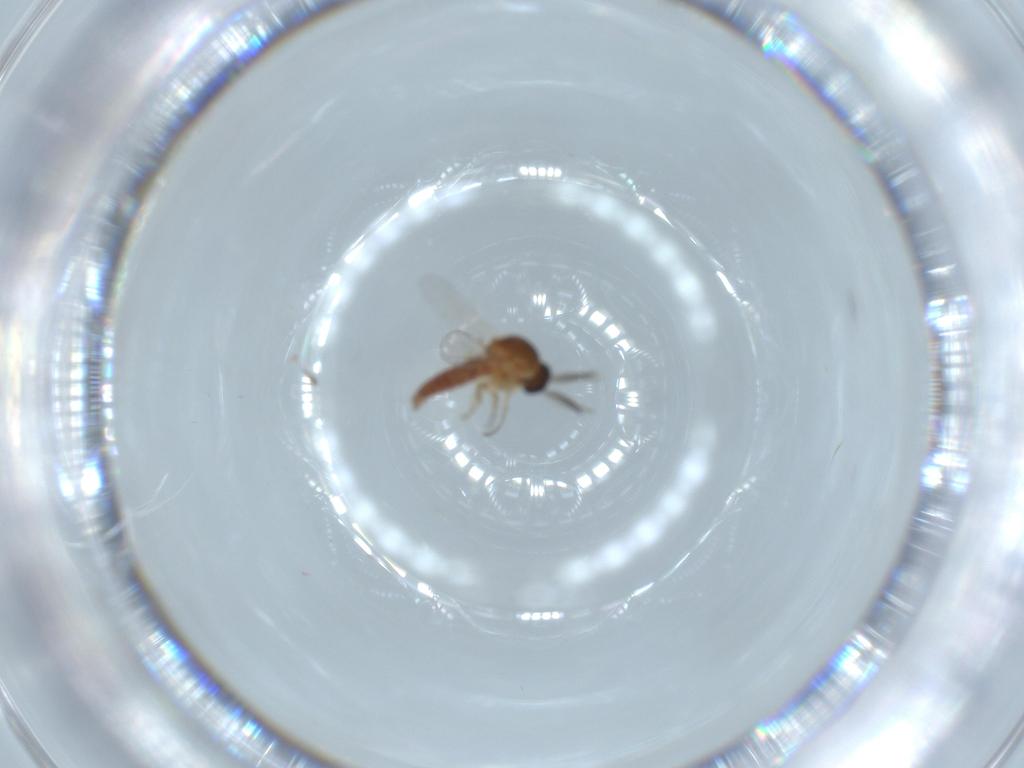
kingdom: Animalia
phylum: Arthropoda
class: Insecta
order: Diptera
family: Ceratopogonidae
